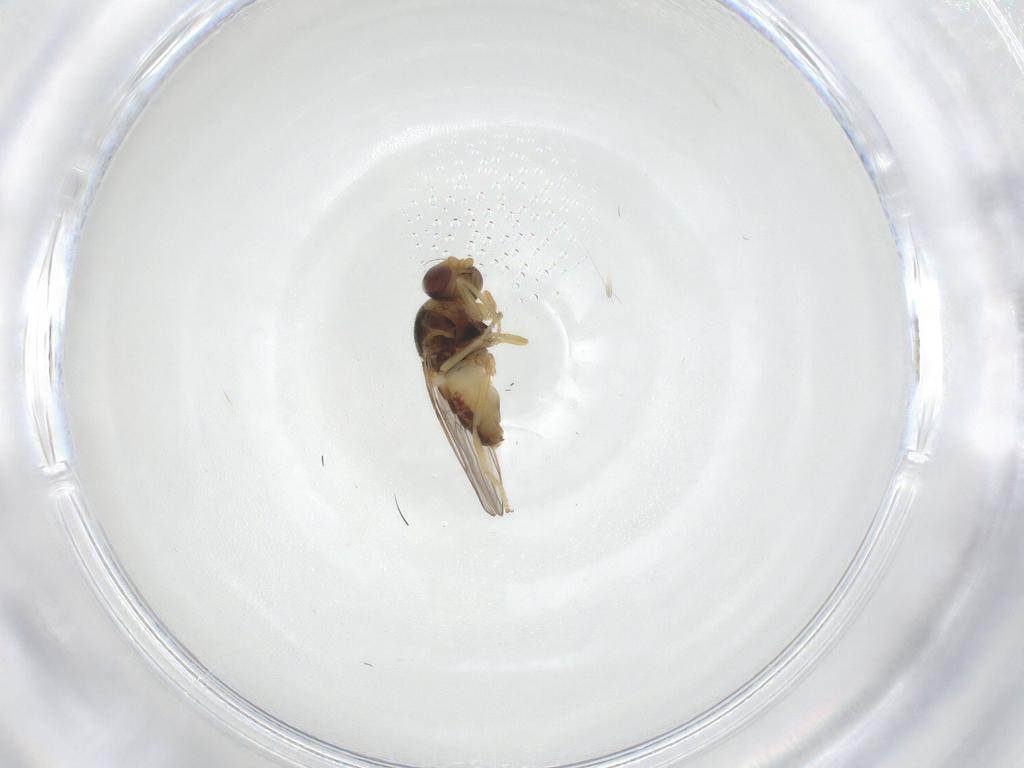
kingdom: Animalia
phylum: Arthropoda
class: Insecta
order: Diptera
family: Chloropidae
